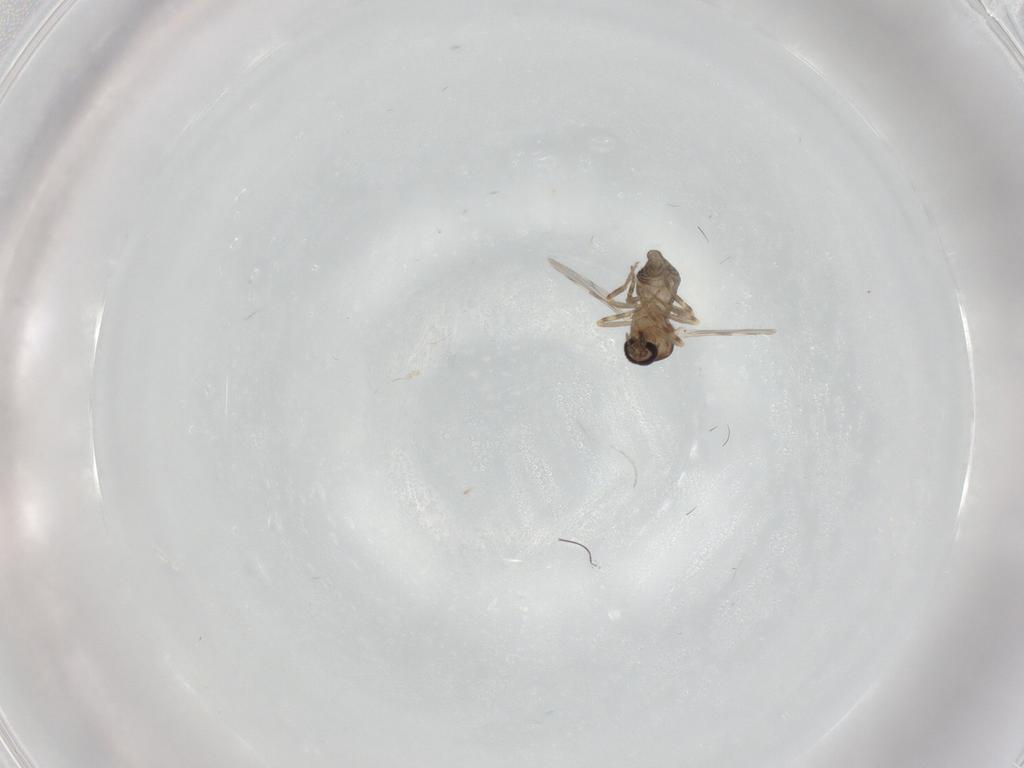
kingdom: Animalia
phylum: Arthropoda
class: Insecta
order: Diptera
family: Ceratopogonidae
